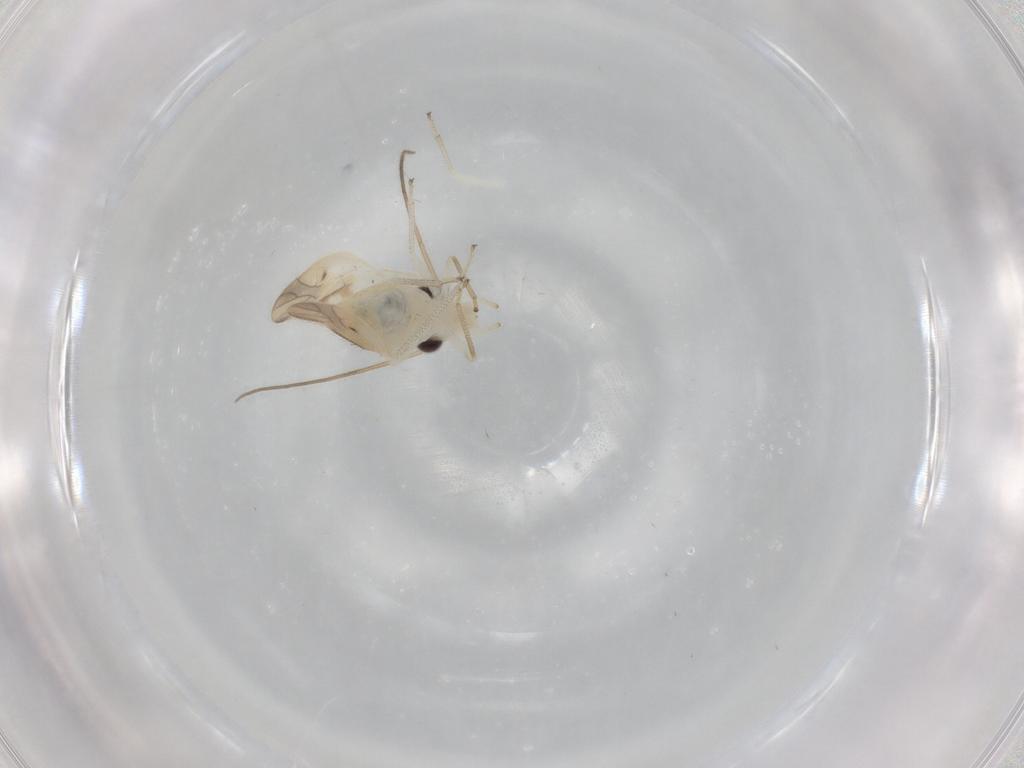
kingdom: Animalia
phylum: Arthropoda
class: Insecta
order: Psocodea
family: Caeciliusidae
